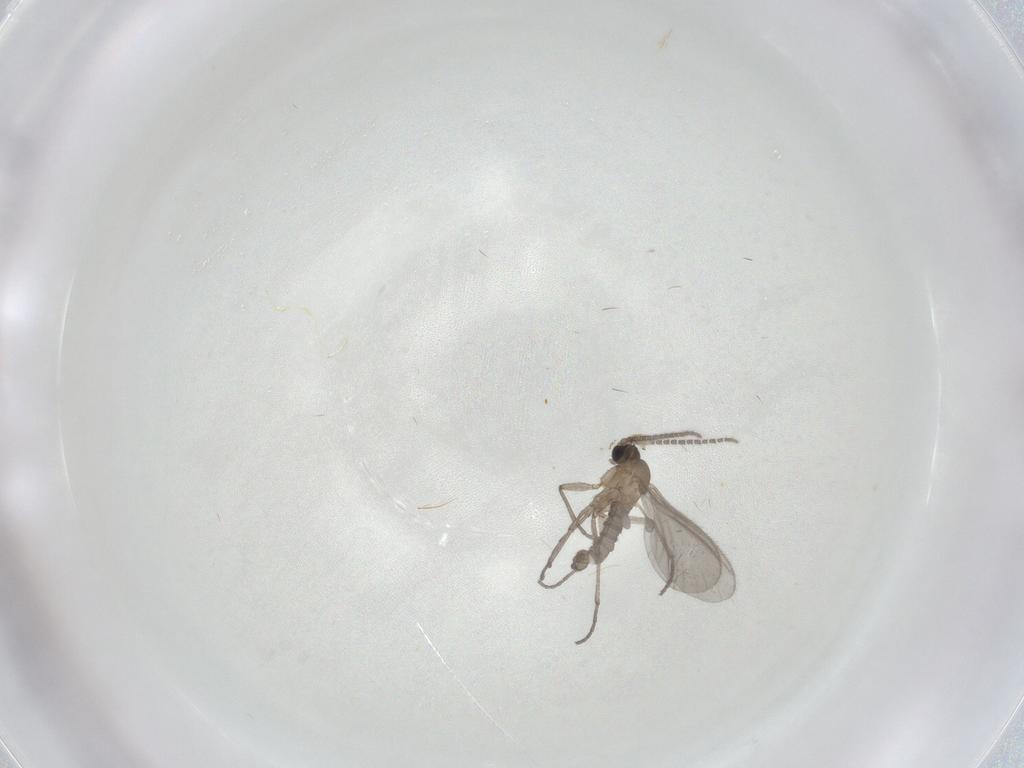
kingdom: Animalia
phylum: Arthropoda
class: Insecta
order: Diptera
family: Sciaridae
